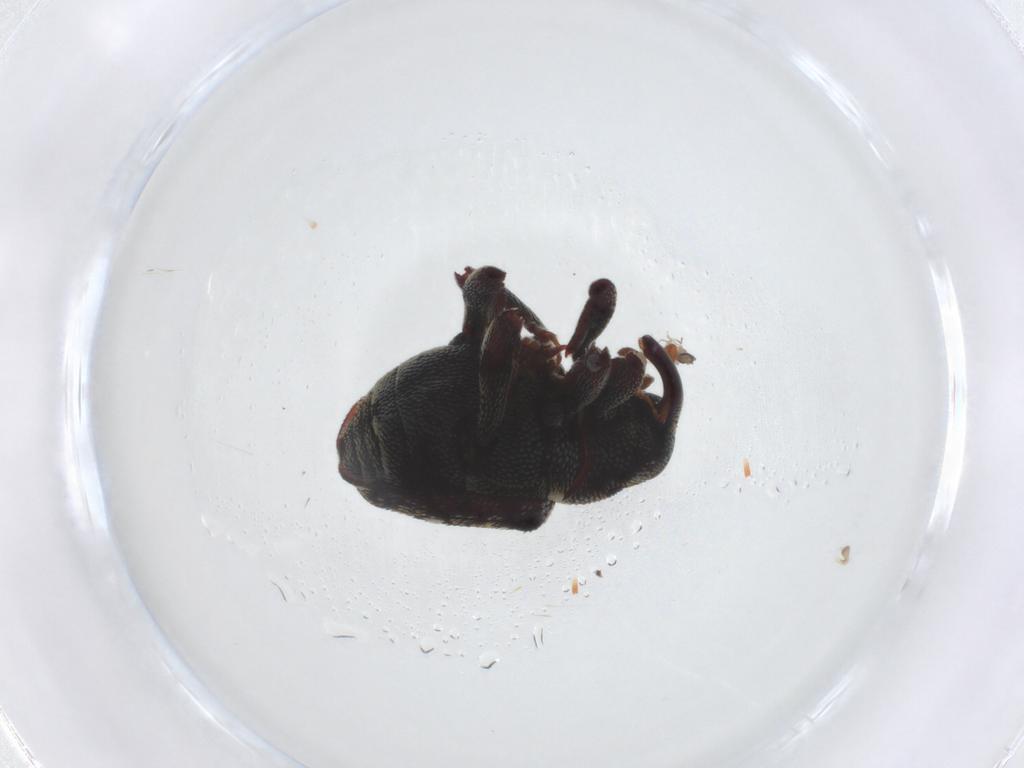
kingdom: Animalia
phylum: Arthropoda
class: Insecta
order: Coleoptera
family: Curculionidae
